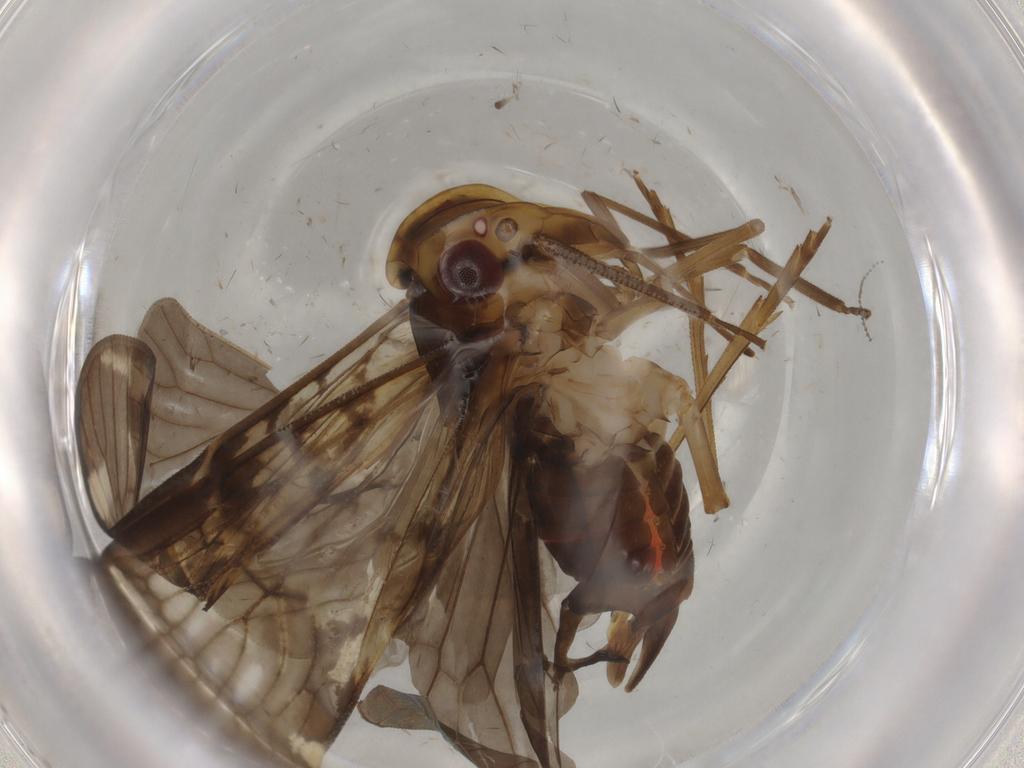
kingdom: Animalia
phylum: Arthropoda
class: Insecta
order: Hemiptera
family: Cixiidae
